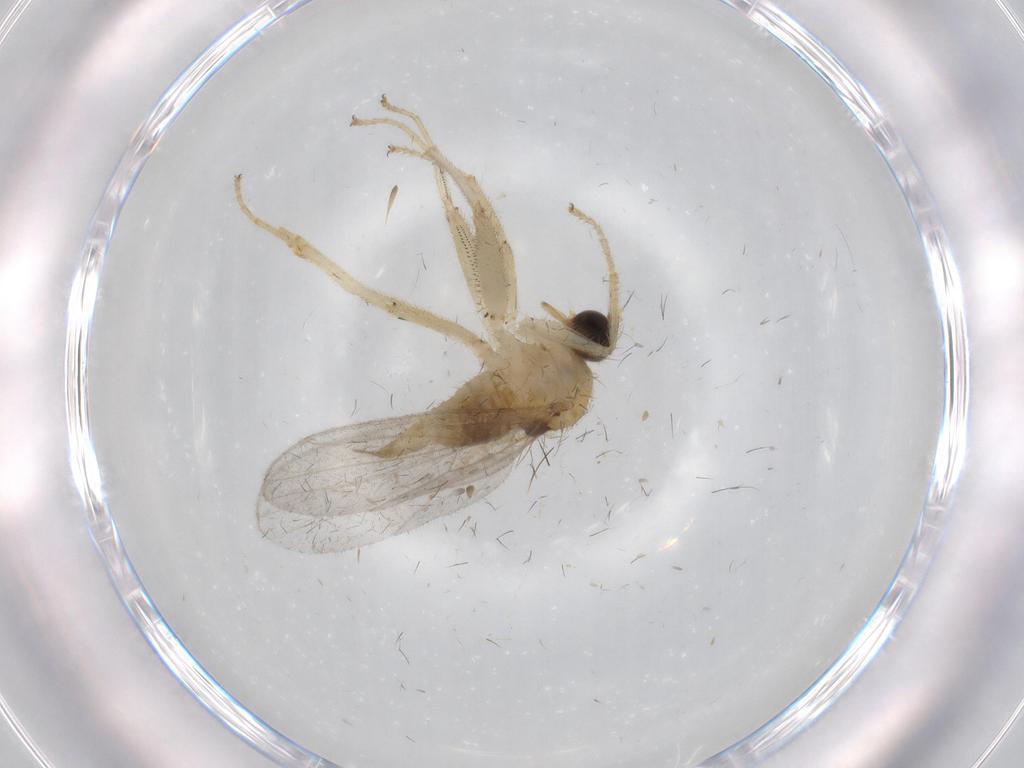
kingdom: Animalia
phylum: Arthropoda
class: Insecta
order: Diptera
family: Hybotidae
